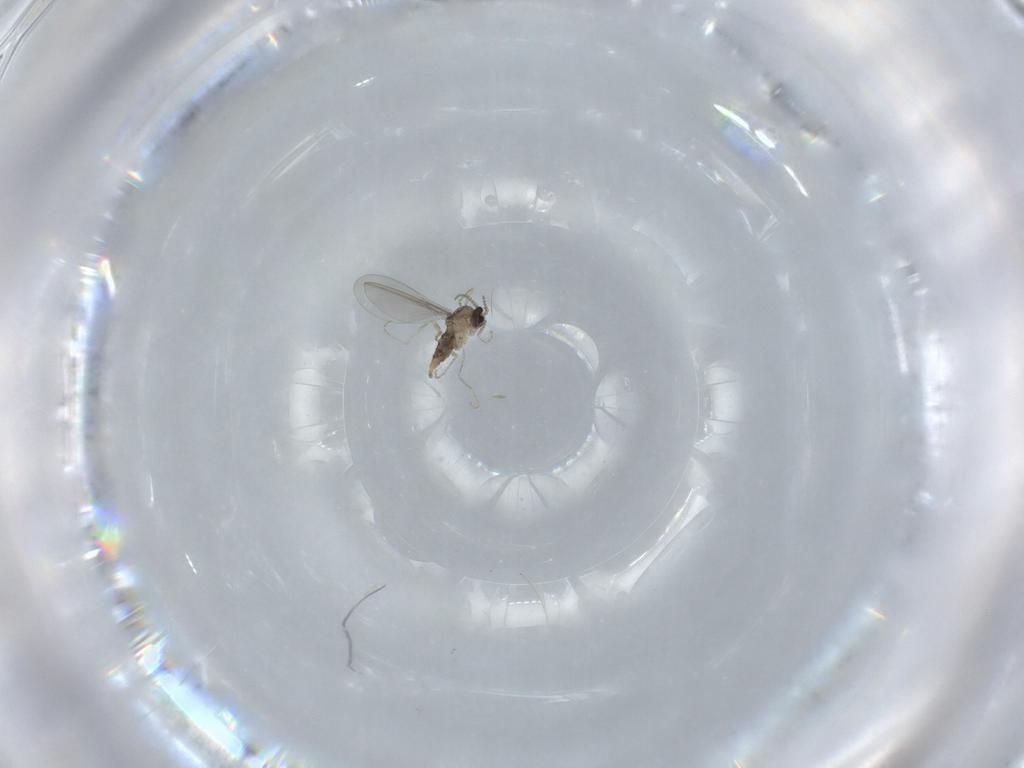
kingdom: Animalia
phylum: Arthropoda
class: Insecta
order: Diptera
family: Cecidomyiidae
